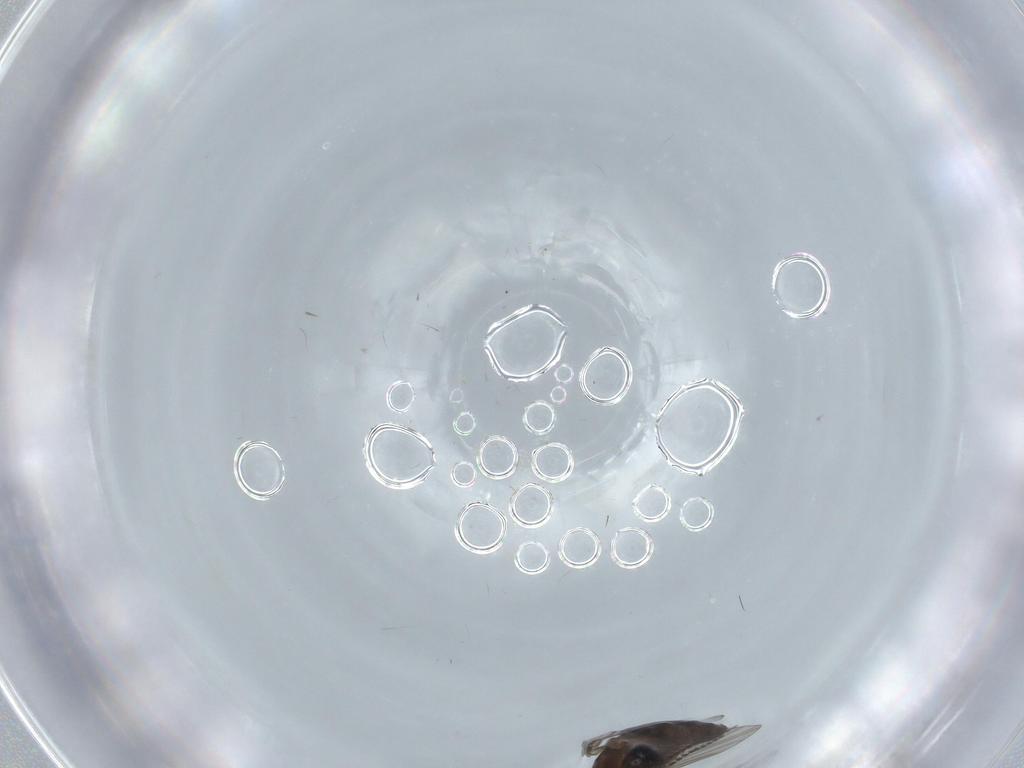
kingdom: Animalia
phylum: Arthropoda
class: Insecta
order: Diptera
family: Psychodidae
